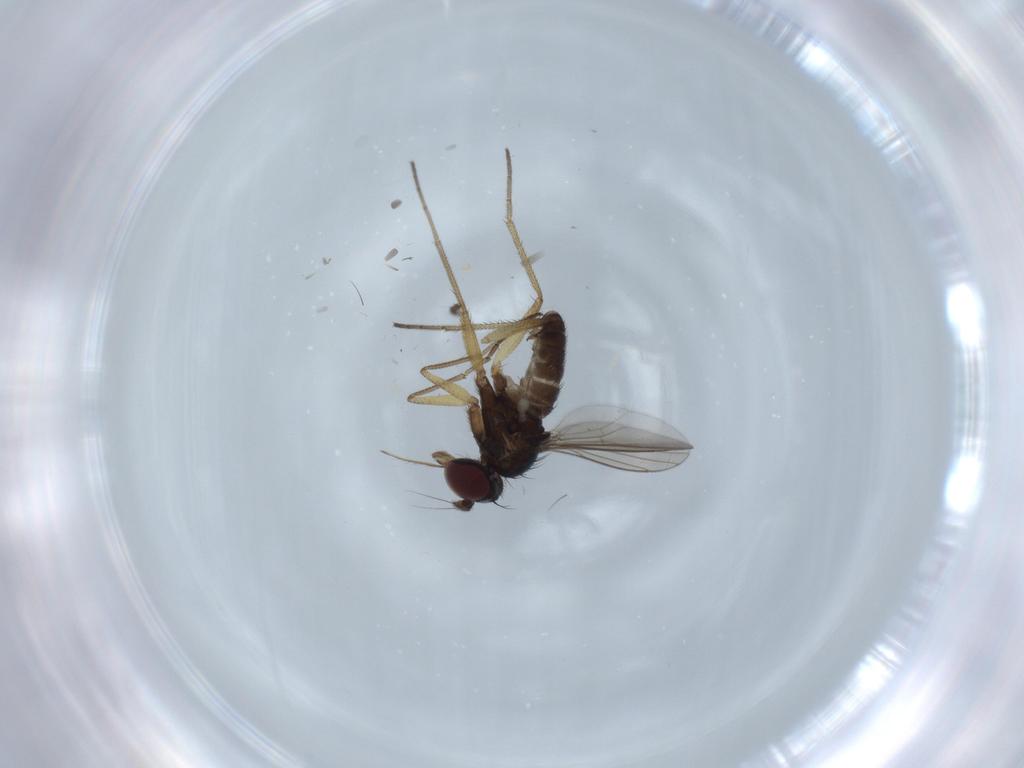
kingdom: Animalia
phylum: Arthropoda
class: Insecta
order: Diptera
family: Dolichopodidae
